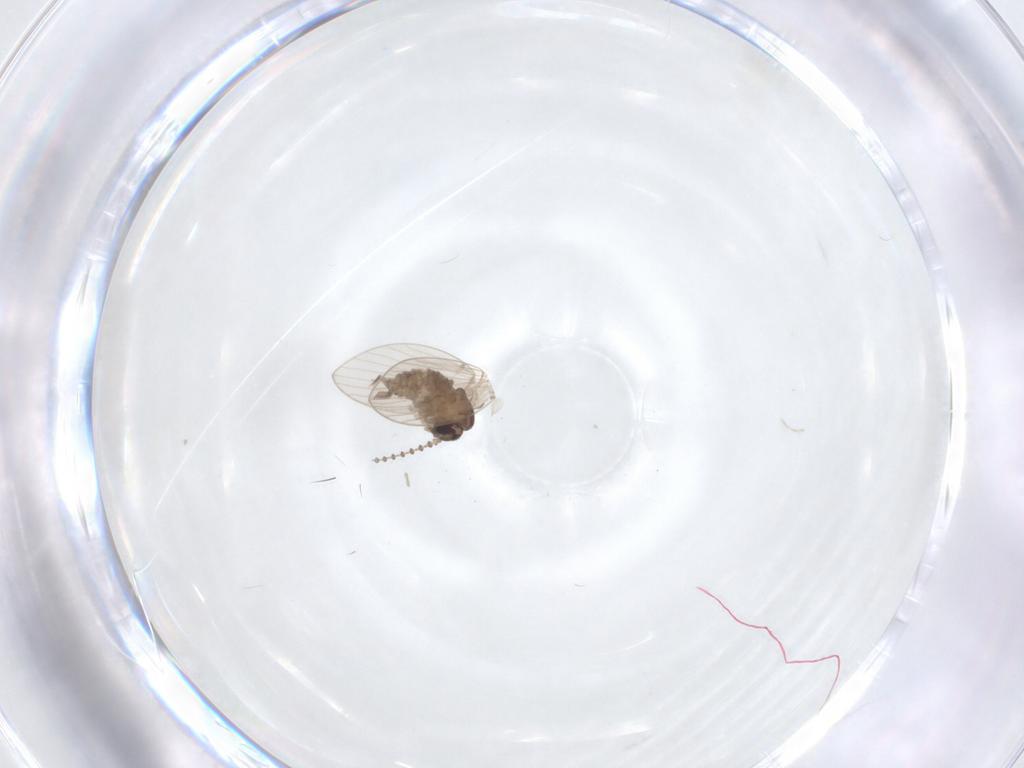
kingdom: Animalia
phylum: Arthropoda
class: Insecta
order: Diptera
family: Psychodidae
